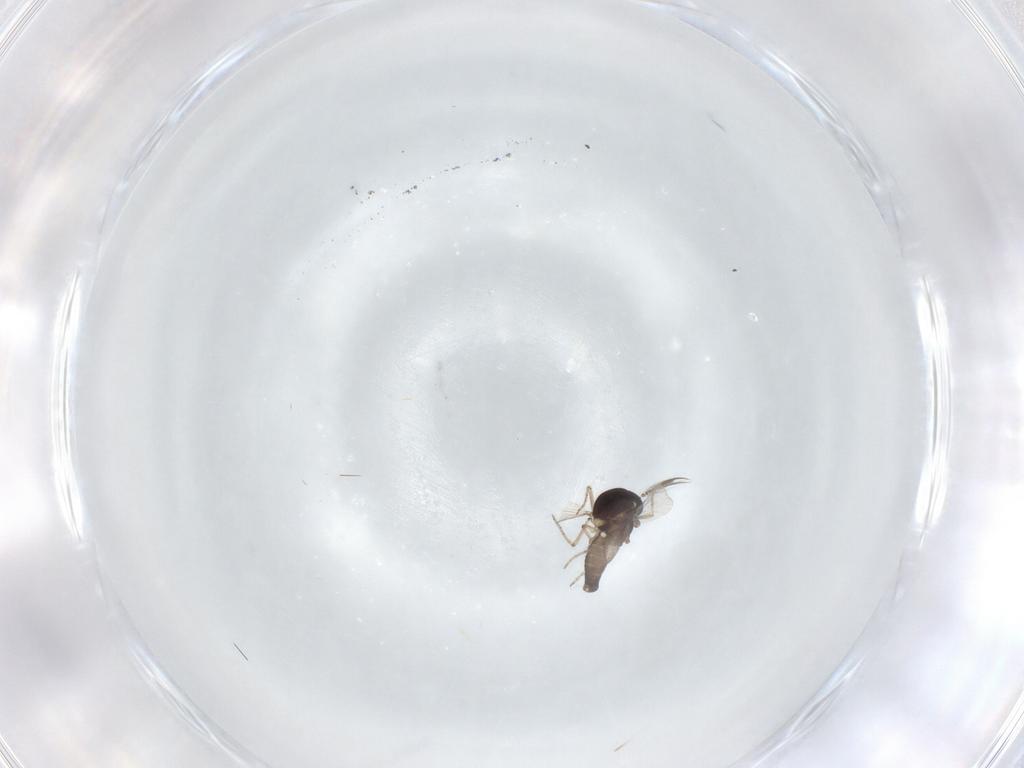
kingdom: Animalia
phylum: Arthropoda
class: Insecta
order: Diptera
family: Ceratopogonidae
